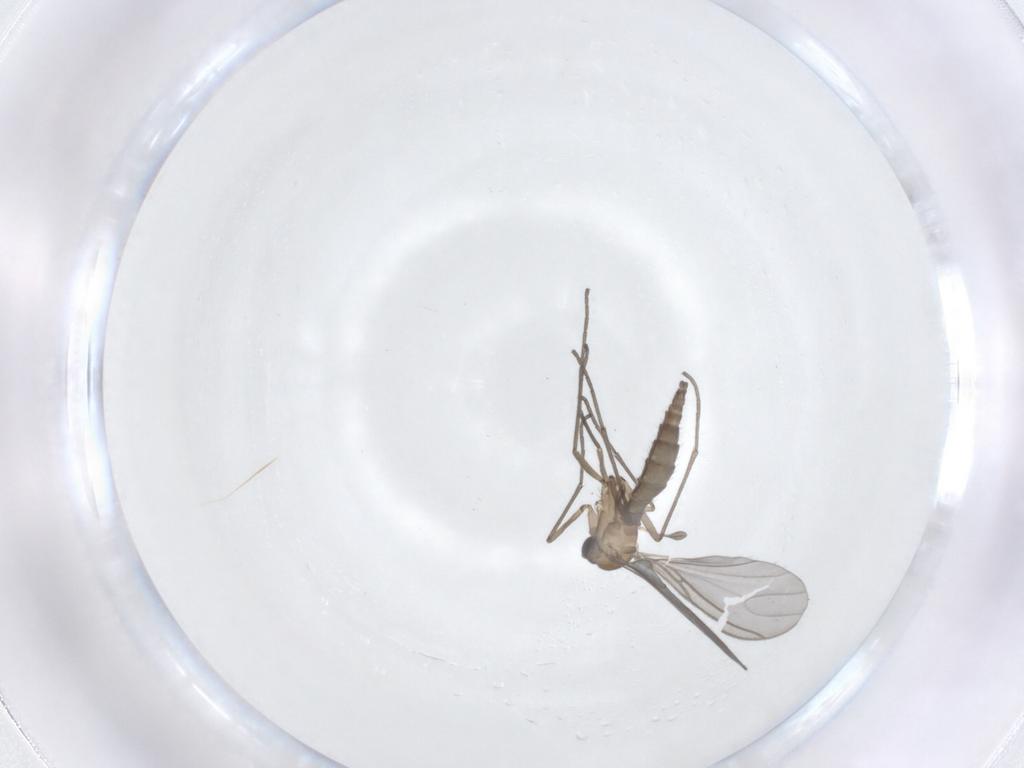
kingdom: Animalia
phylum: Arthropoda
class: Insecta
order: Diptera
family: Sciaridae
